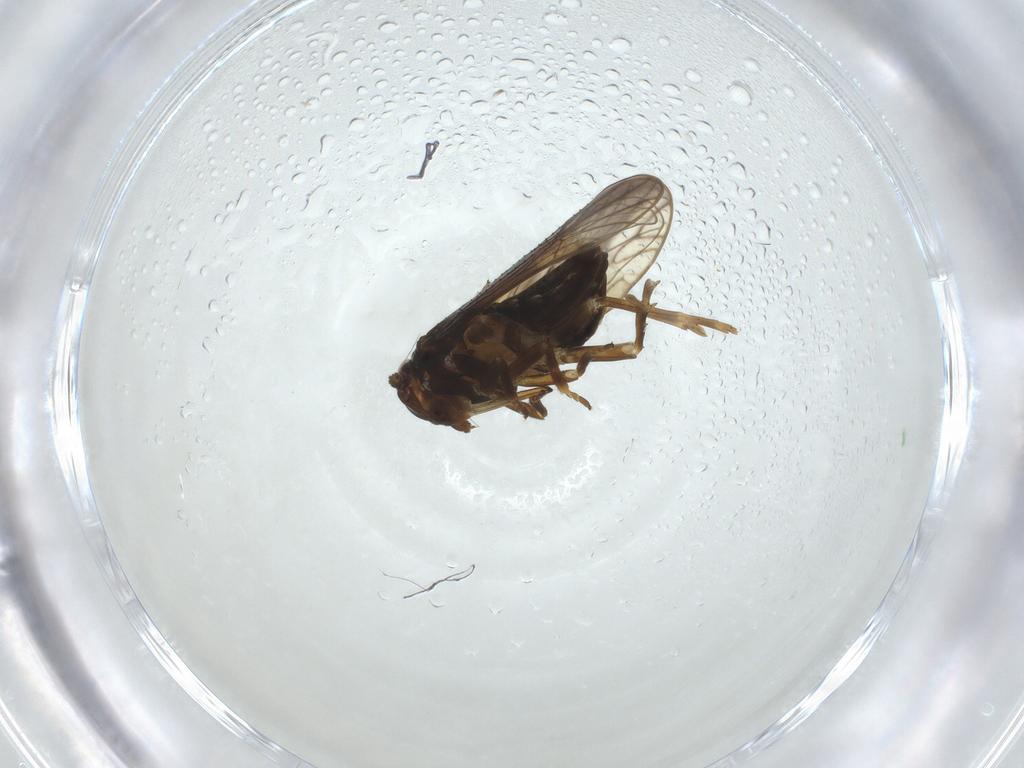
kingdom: Animalia
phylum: Arthropoda
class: Insecta
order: Hemiptera
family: Delphacidae
